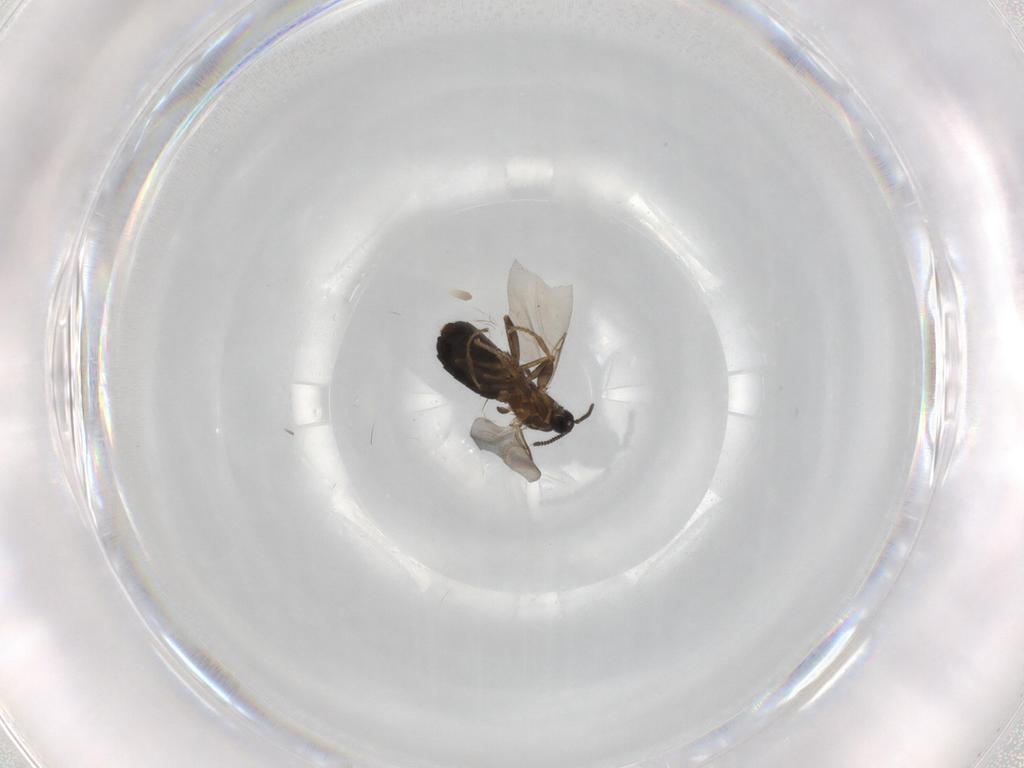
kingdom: Animalia
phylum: Arthropoda
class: Insecta
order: Diptera
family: Scatopsidae
